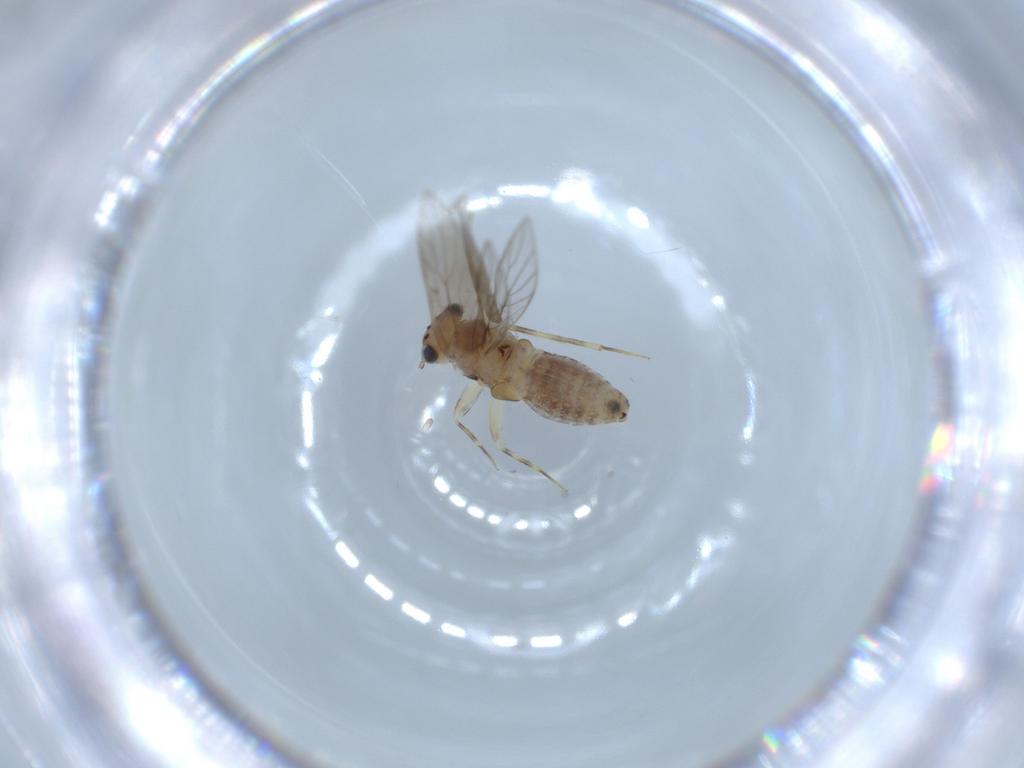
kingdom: Animalia
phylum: Arthropoda
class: Insecta
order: Psocodea
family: Lepidopsocidae
